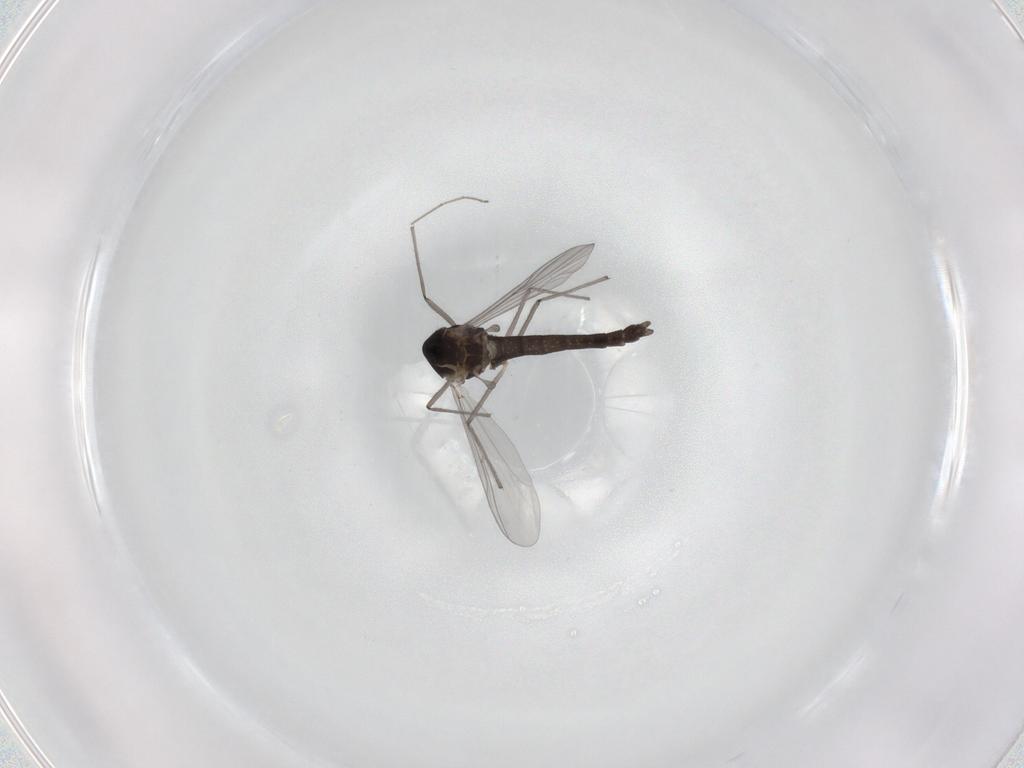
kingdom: Animalia
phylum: Arthropoda
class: Insecta
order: Diptera
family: Chironomidae
